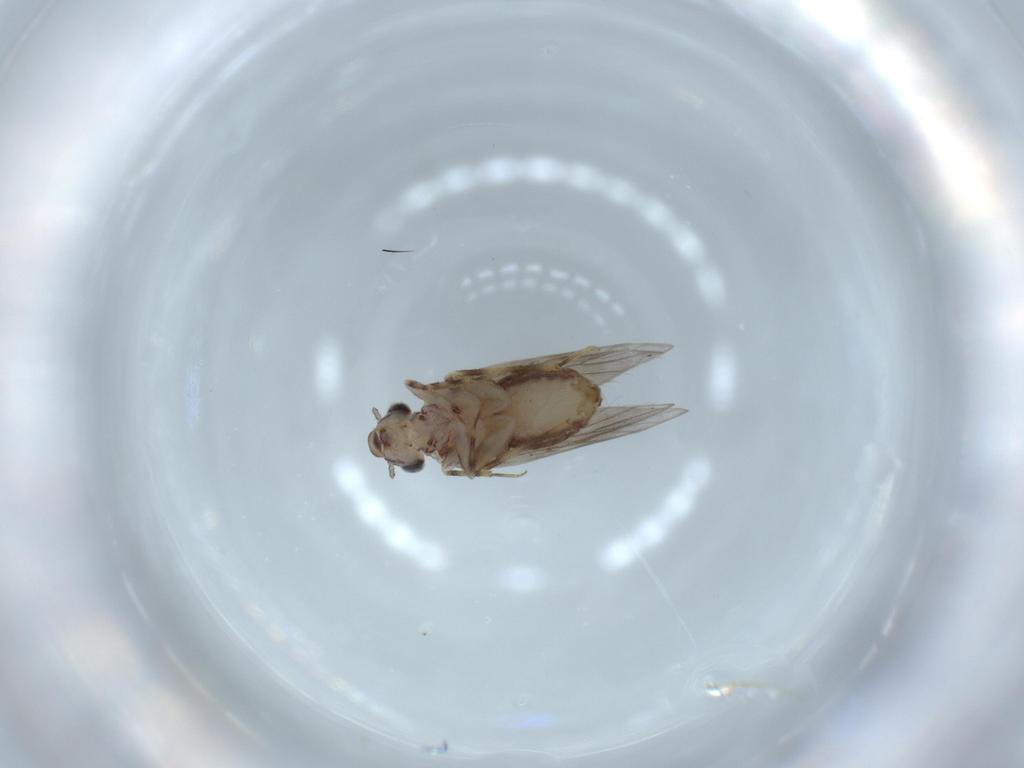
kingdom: Animalia
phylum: Arthropoda
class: Insecta
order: Psocodea
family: Lepidopsocidae
